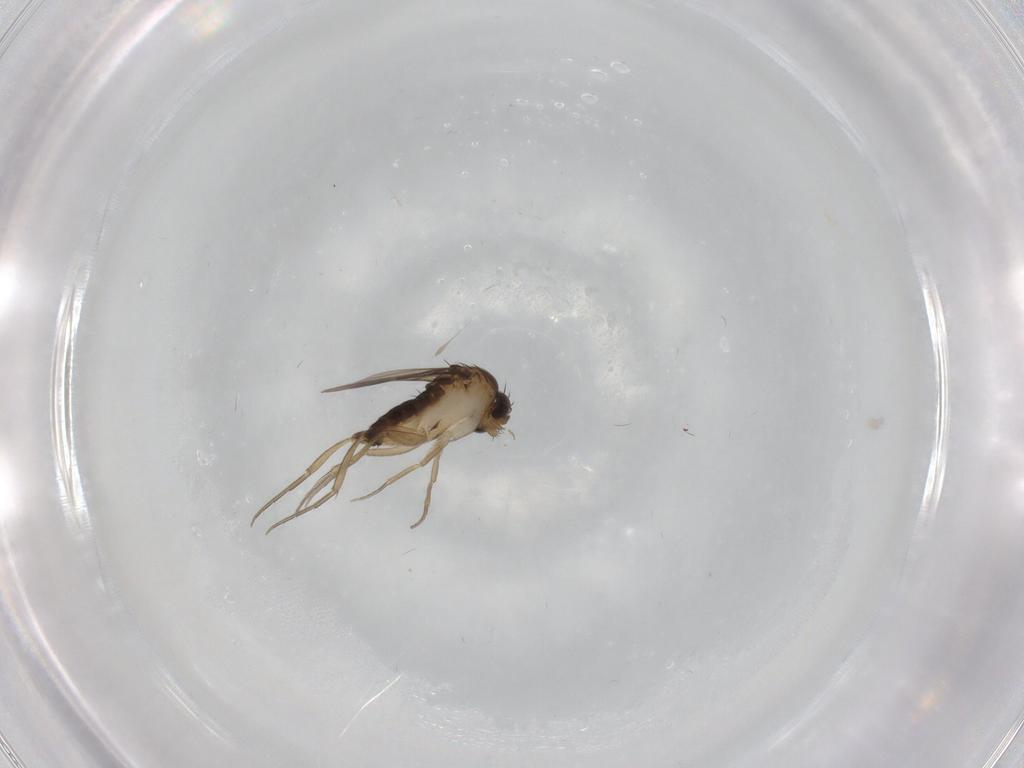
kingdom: Animalia
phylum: Arthropoda
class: Insecta
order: Diptera
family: Phoridae
